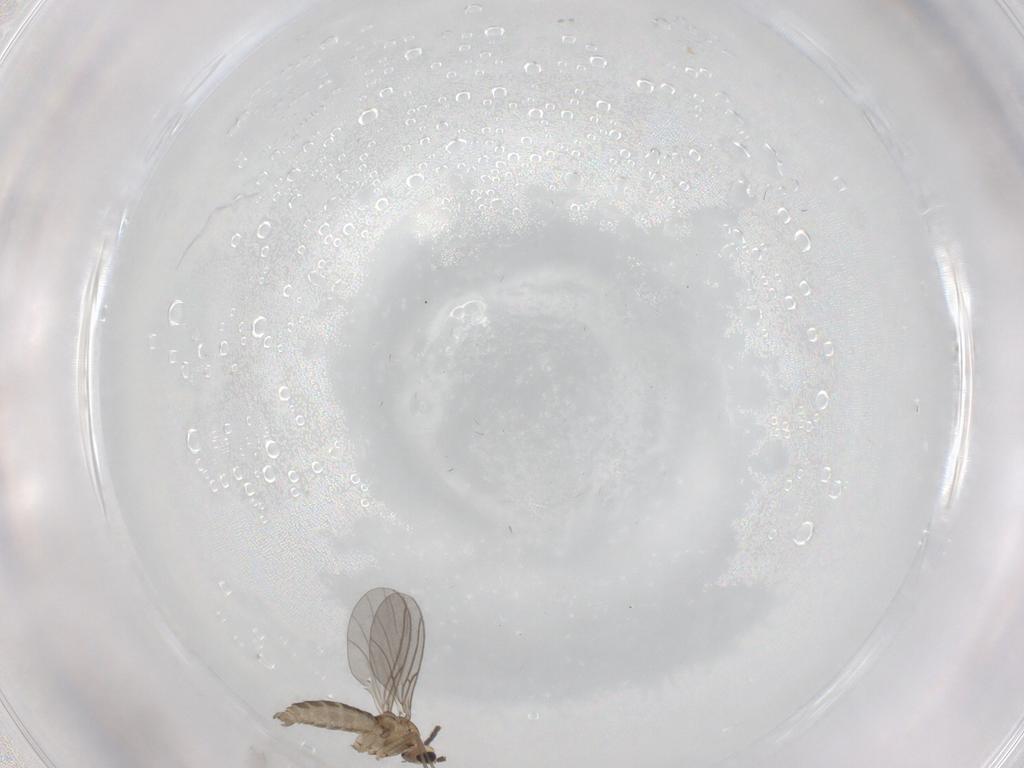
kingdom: Animalia
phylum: Arthropoda
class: Insecta
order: Diptera
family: Sciaridae
